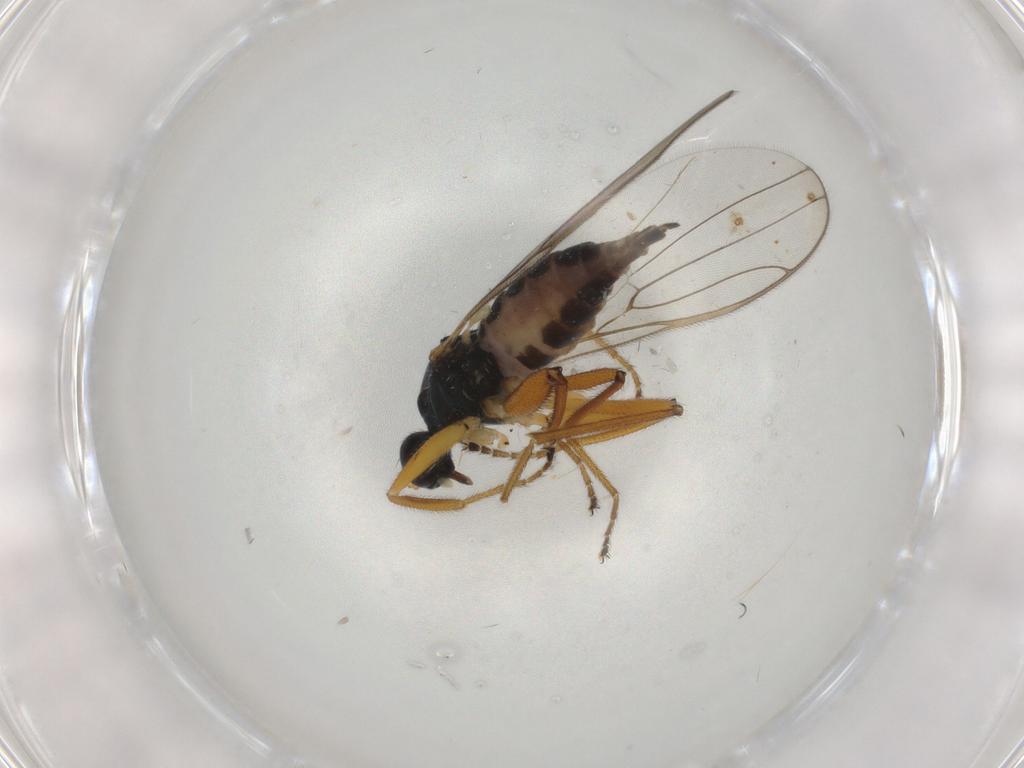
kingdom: Animalia
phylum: Arthropoda
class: Insecta
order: Diptera
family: Hybotidae
